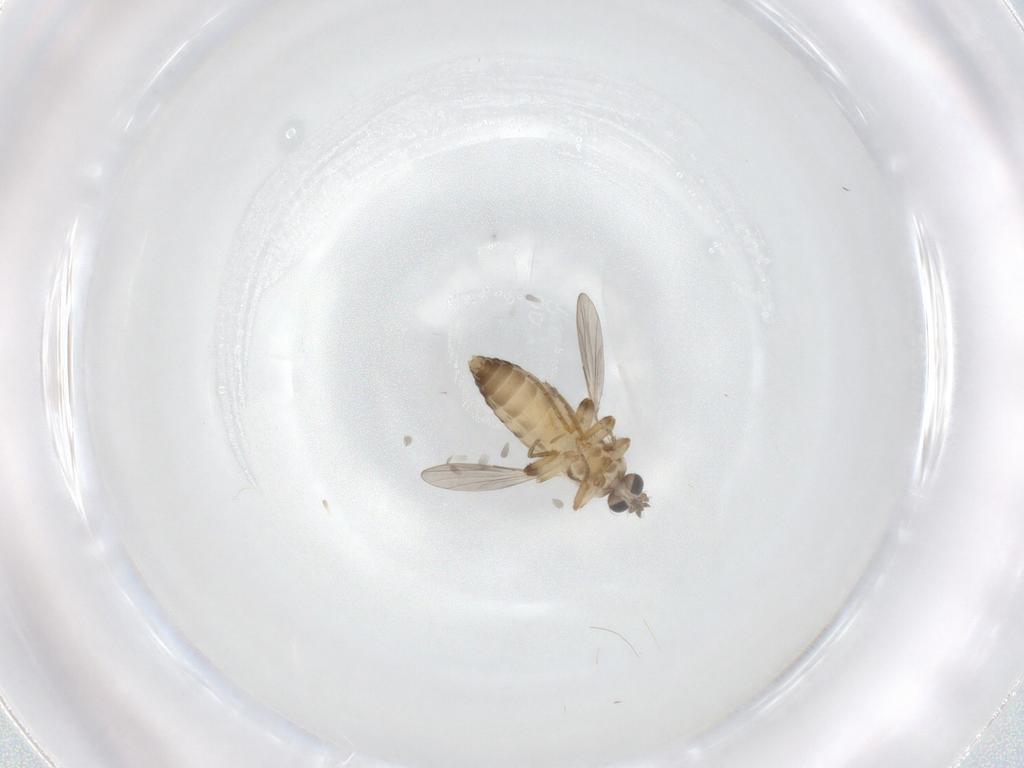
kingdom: Animalia
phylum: Arthropoda
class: Insecta
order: Diptera
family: Ceratopogonidae
